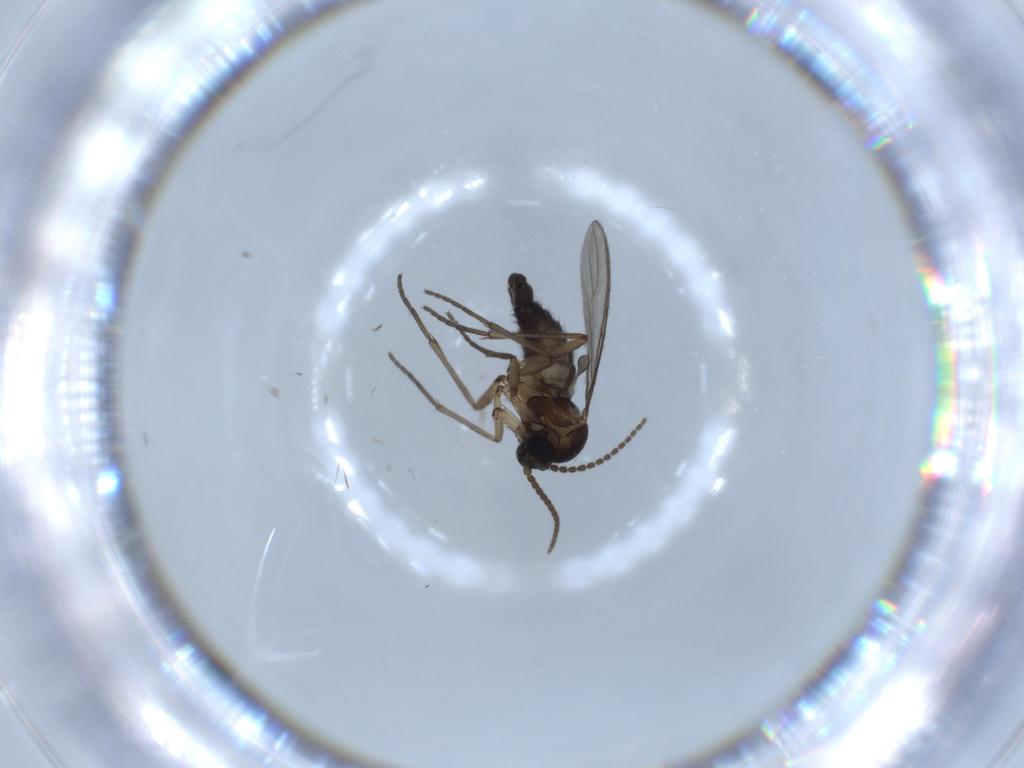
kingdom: Animalia
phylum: Arthropoda
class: Insecta
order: Diptera
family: Sciaridae
